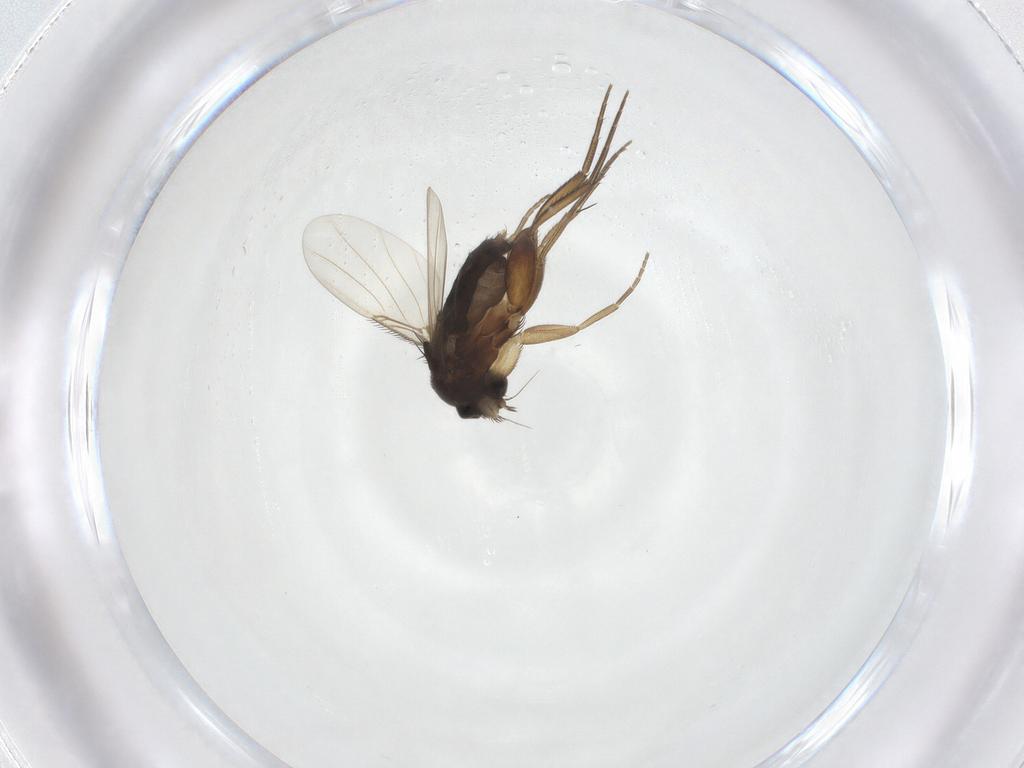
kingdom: Animalia
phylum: Arthropoda
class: Insecta
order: Diptera
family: Phoridae
